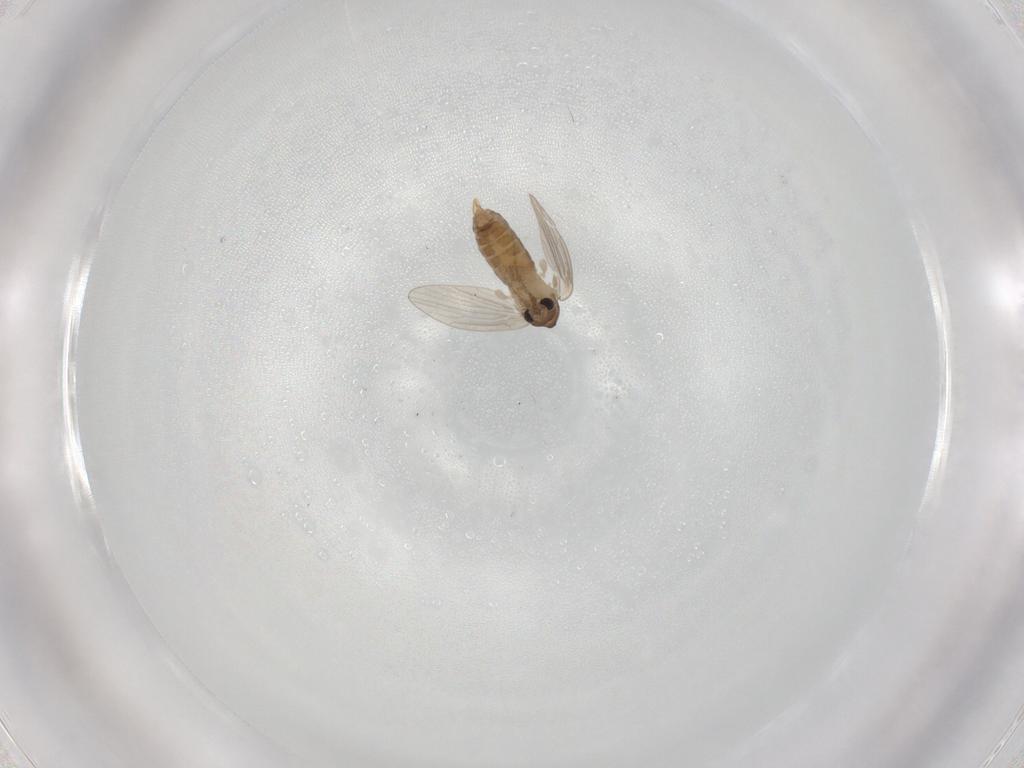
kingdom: Animalia
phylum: Arthropoda
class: Insecta
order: Diptera
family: Psychodidae
